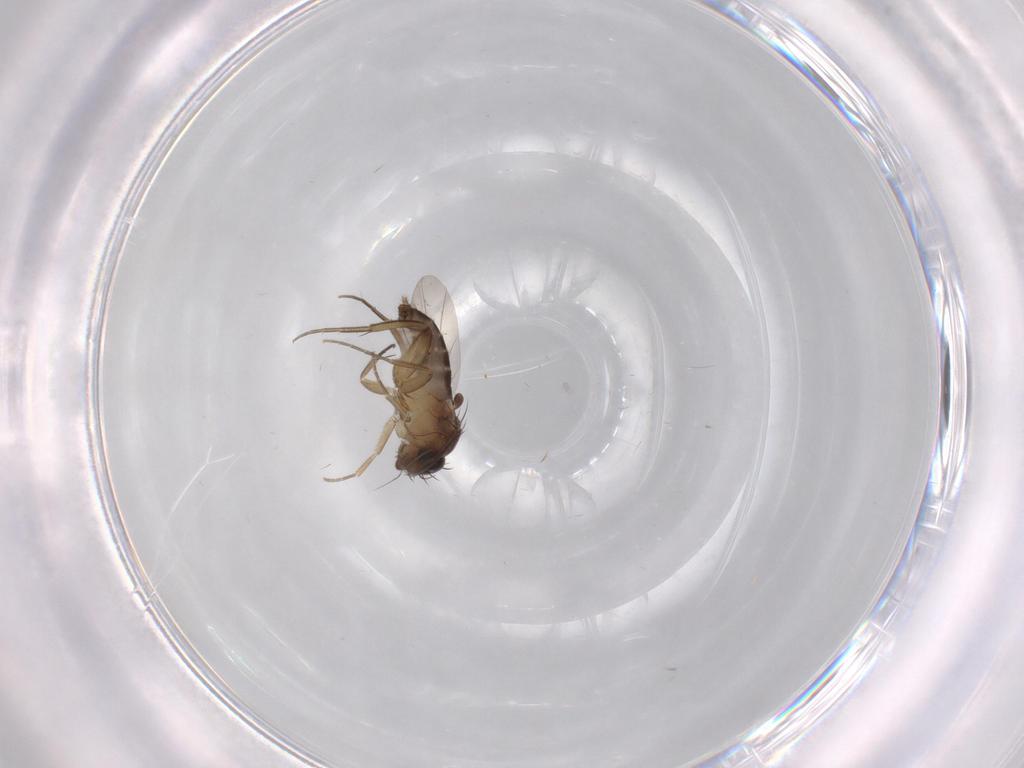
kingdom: Animalia
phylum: Arthropoda
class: Insecta
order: Diptera
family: Phoridae
